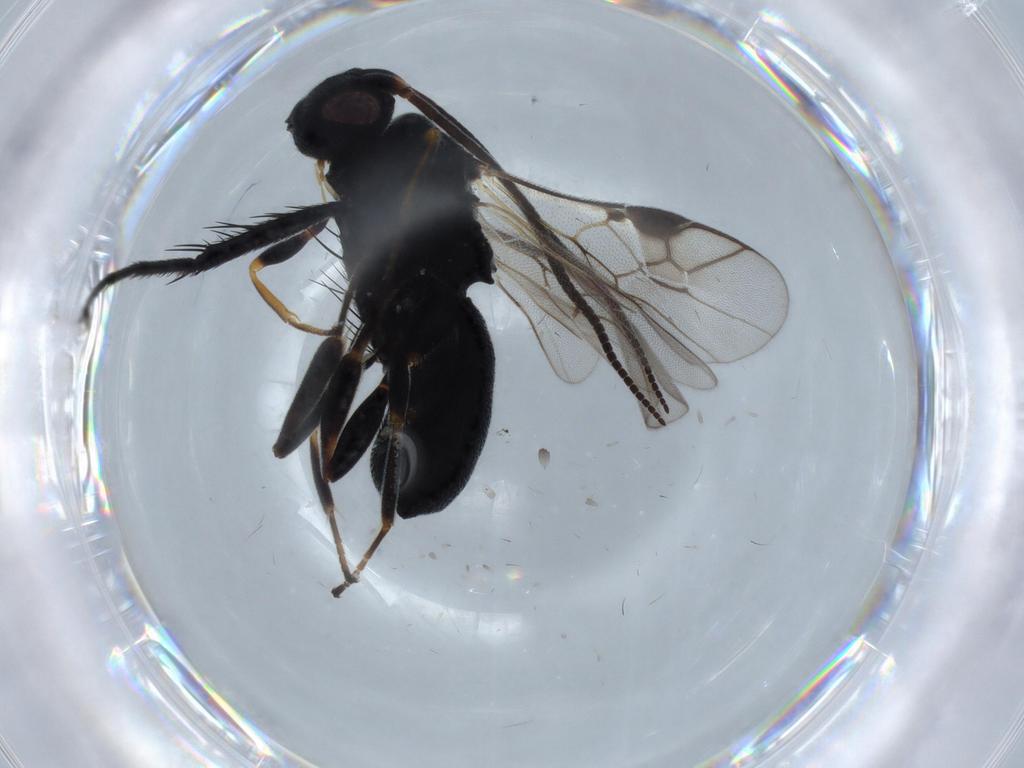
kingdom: Animalia
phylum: Arthropoda
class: Insecta
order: Hymenoptera
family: Braconidae
